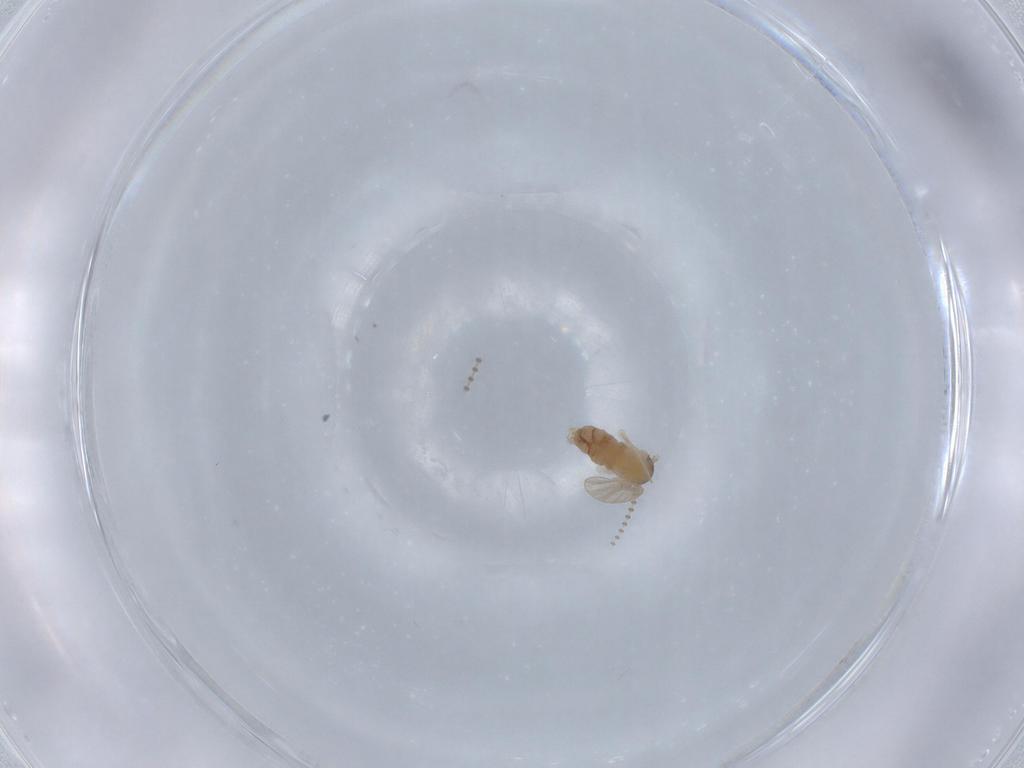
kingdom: Animalia
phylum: Arthropoda
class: Insecta
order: Diptera
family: Psychodidae
